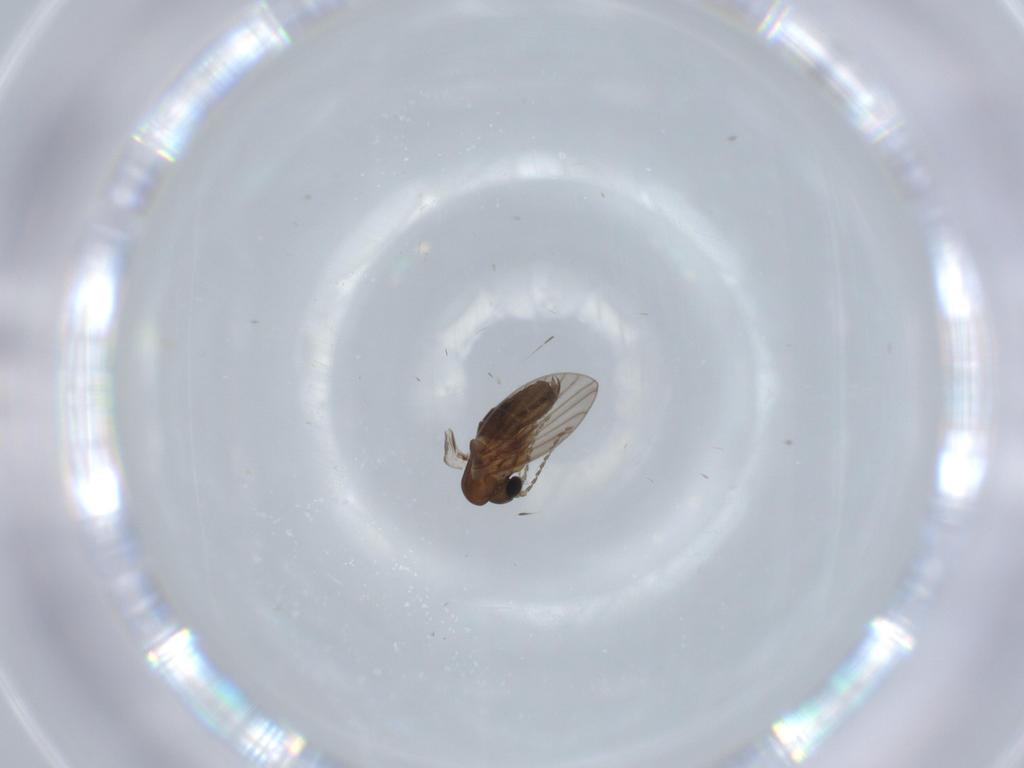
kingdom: Animalia
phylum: Arthropoda
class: Insecta
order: Diptera
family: Psychodidae
